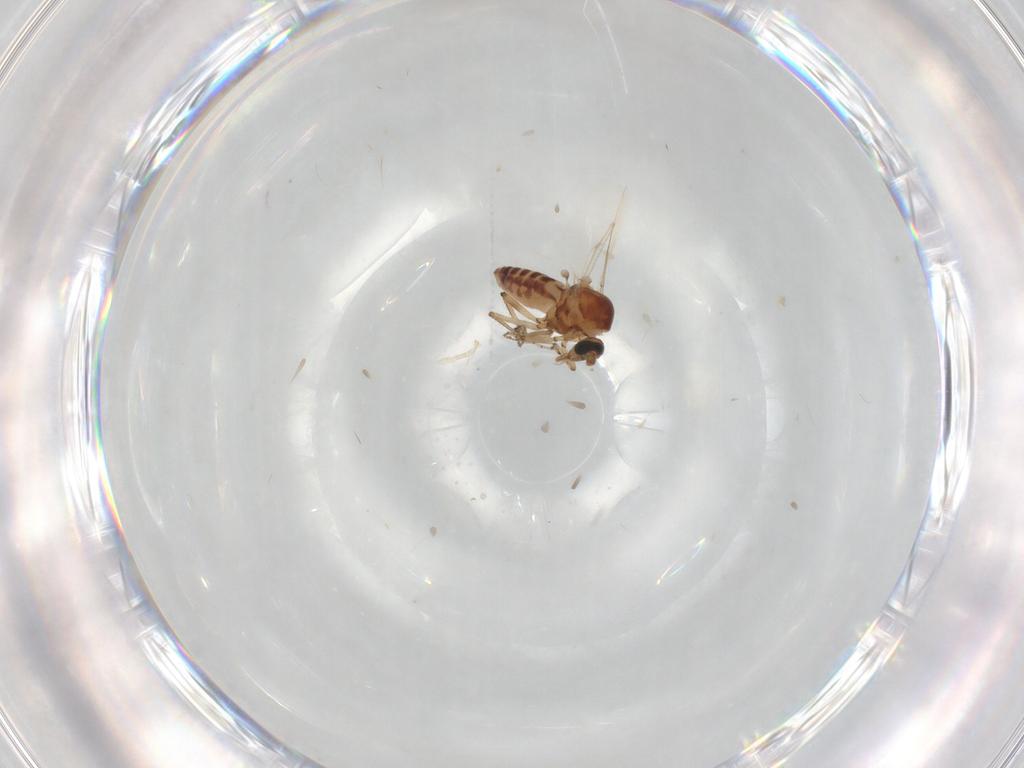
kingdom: Animalia
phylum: Arthropoda
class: Insecta
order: Diptera
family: Ceratopogonidae
